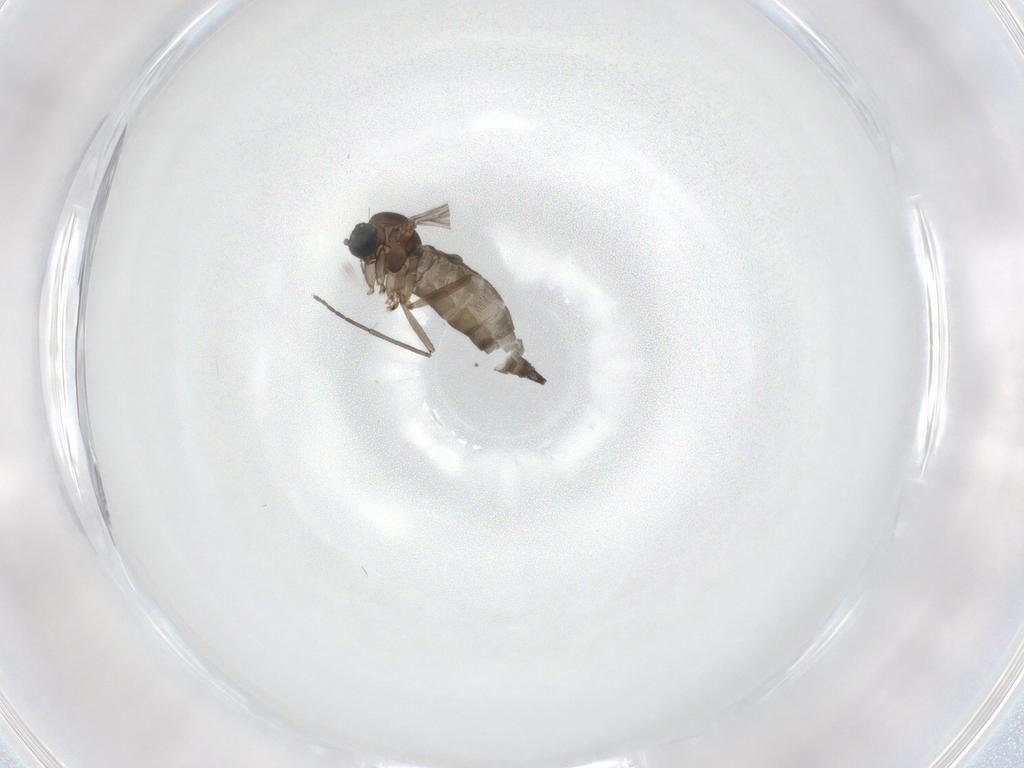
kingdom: Animalia
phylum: Arthropoda
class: Insecta
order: Diptera
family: Sciaridae
